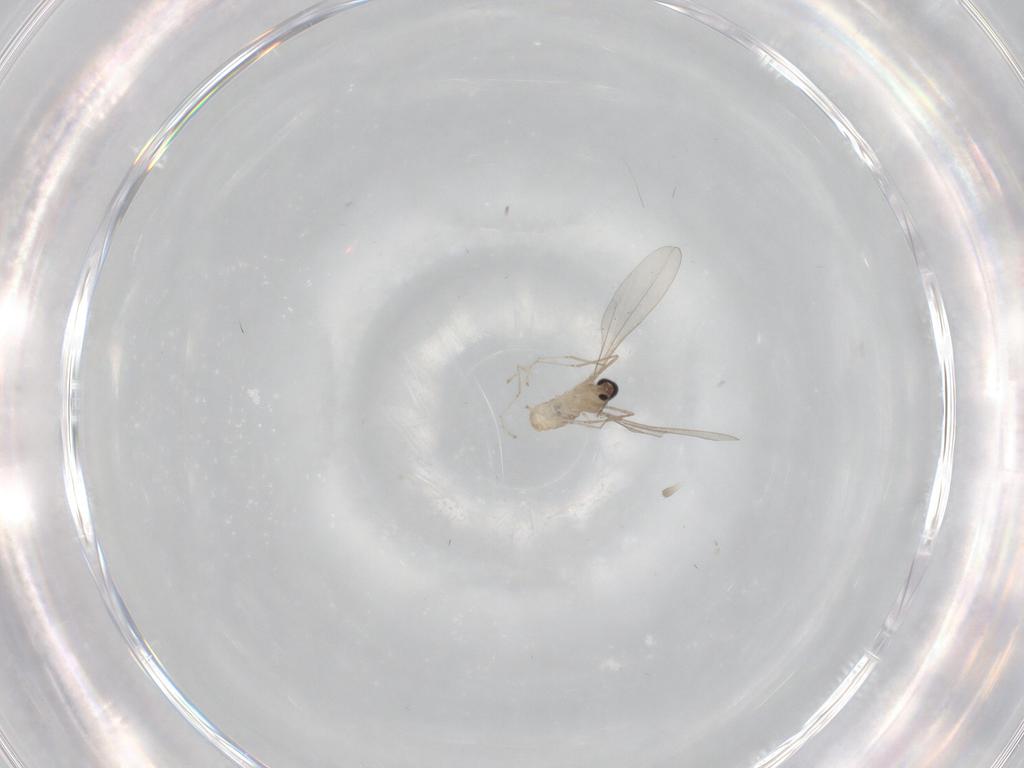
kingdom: Animalia
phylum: Arthropoda
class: Insecta
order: Diptera
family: Cecidomyiidae
